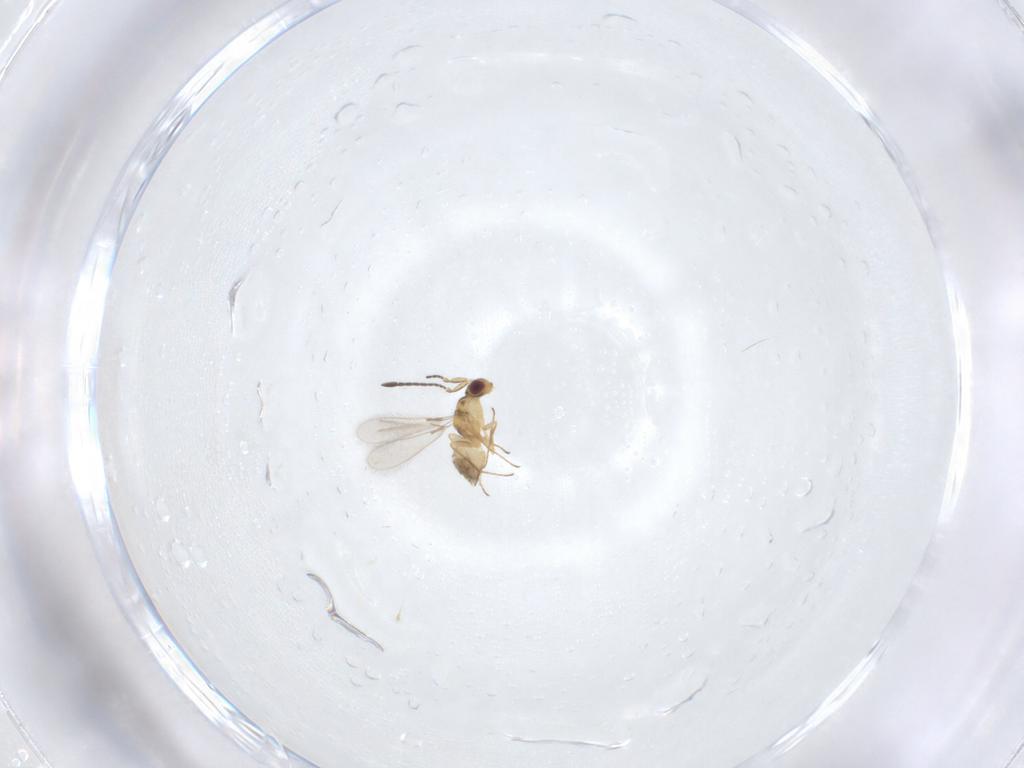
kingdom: Animalia
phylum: Arthropoda
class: Insecta
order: Hymenoptera
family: Mymaridae
